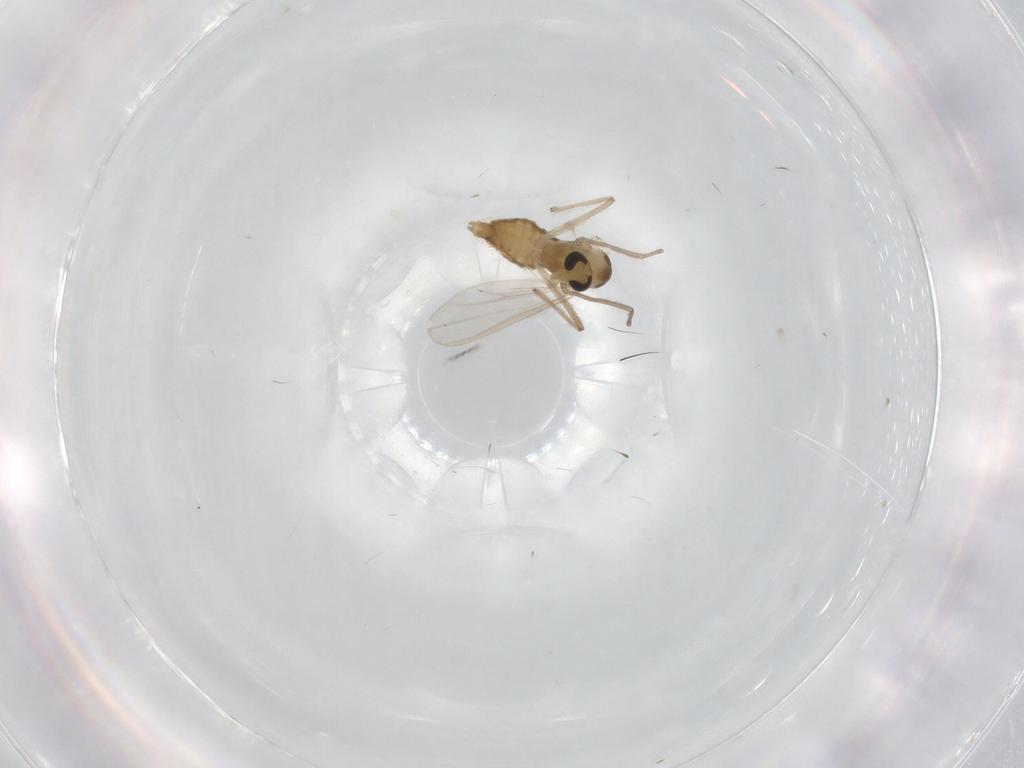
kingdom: Animalia
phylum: Arthropoda
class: Insecta
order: Diptera
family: Chironomidae
